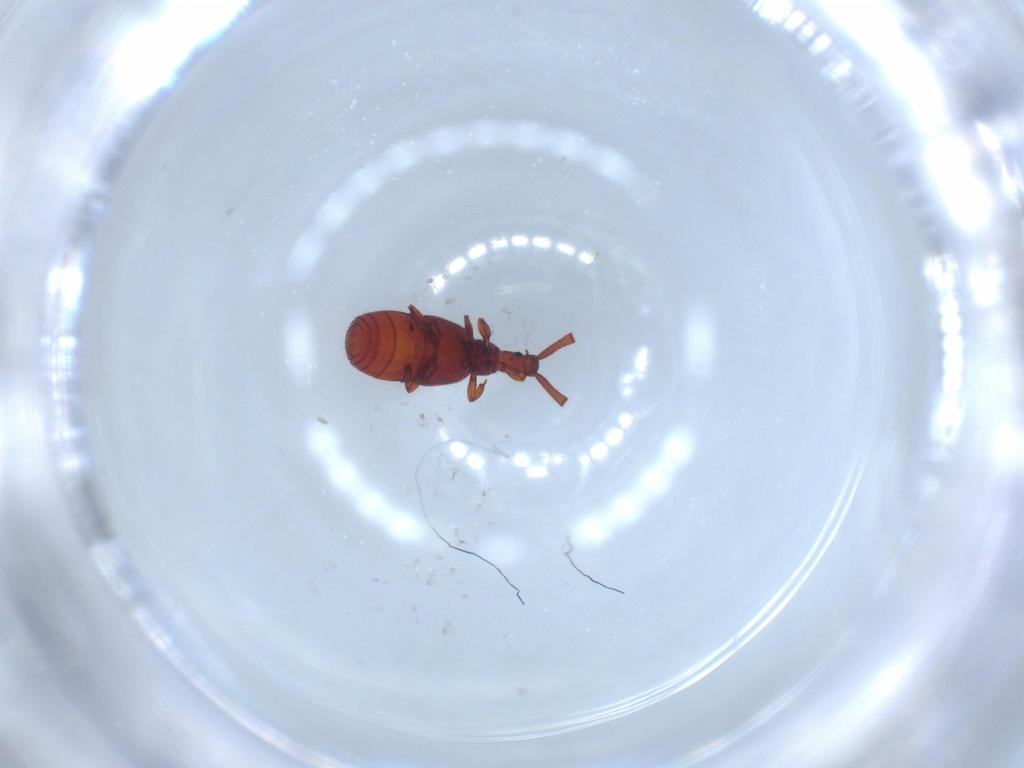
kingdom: Animalia
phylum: Arthropoda
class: Insecta
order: Coleoptera
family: Staphylinidae
